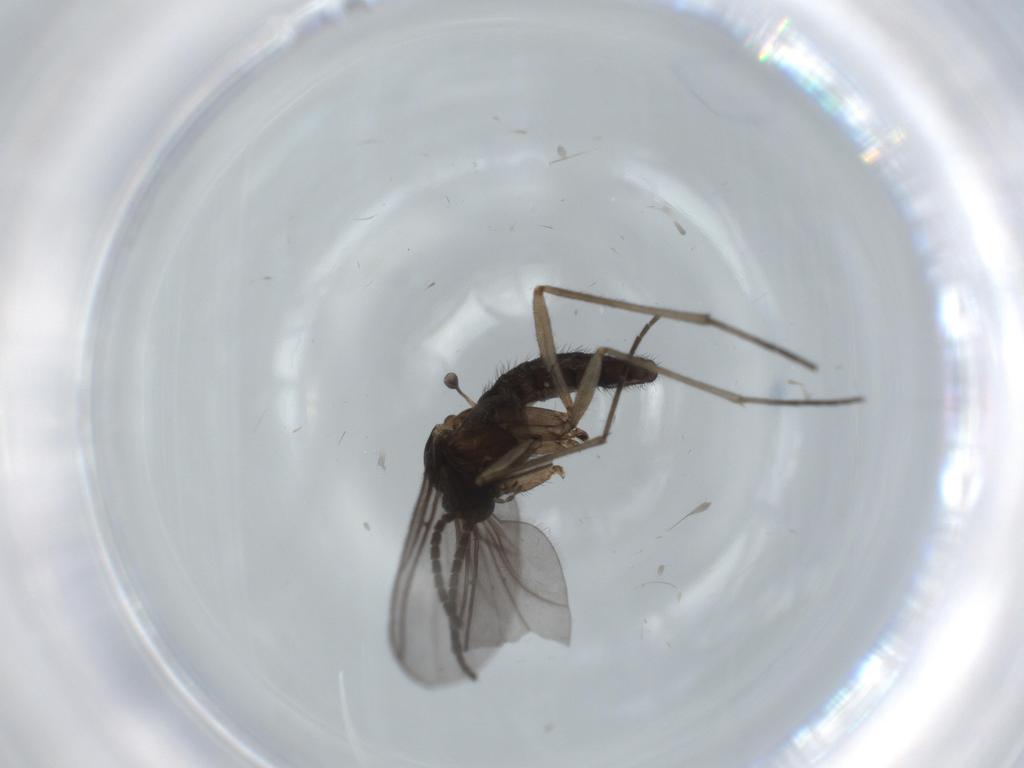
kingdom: Animalia
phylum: Arthropoda
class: Insecta
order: Diptera
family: Sciaridae
